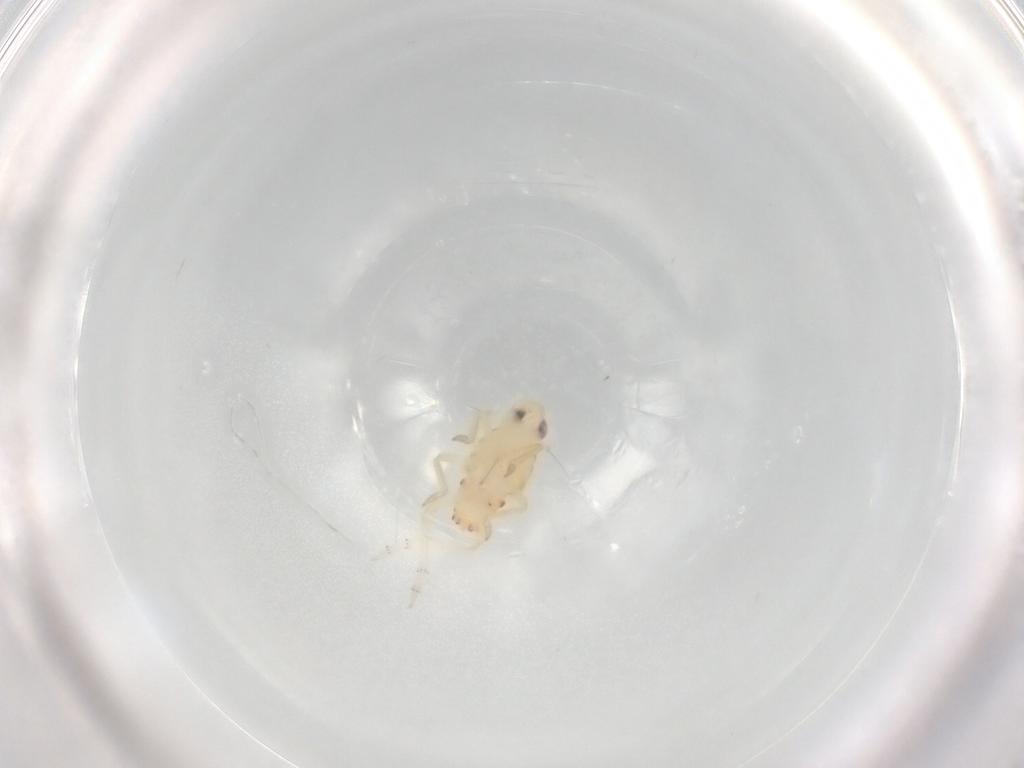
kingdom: Animalia
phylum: Arthropoda
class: Insecta
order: Hemiptera
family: Tropiduchidae
